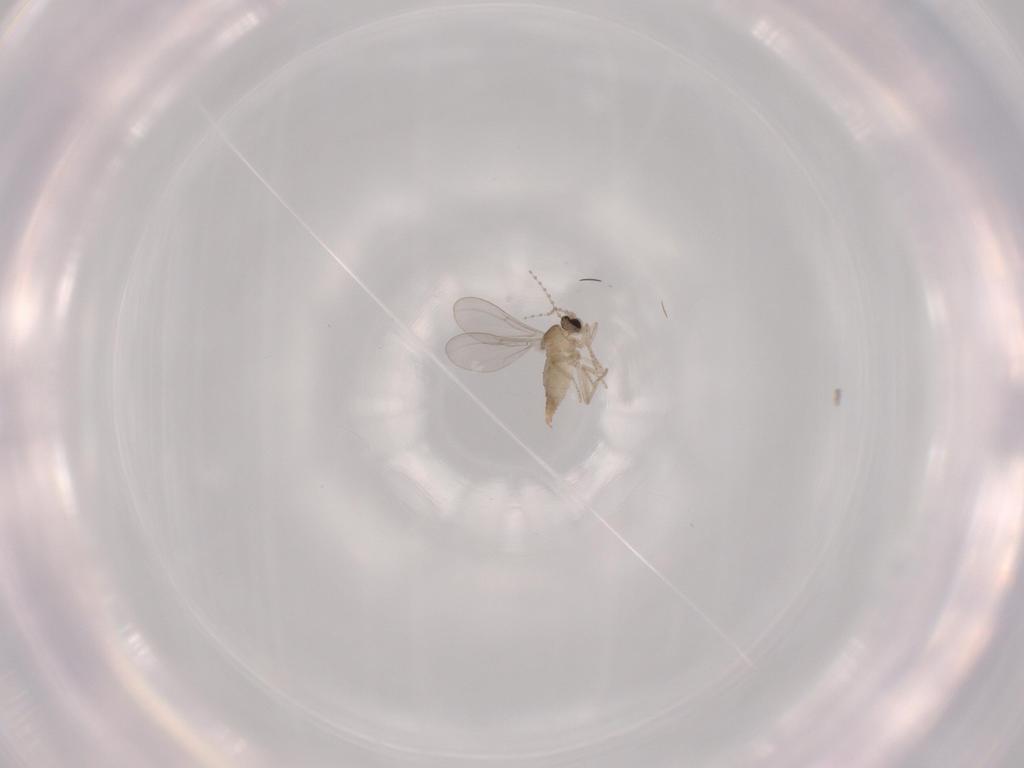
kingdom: Animalia
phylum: Arthropoda
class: Insecta
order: Diptera
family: Cecidomyiidae
